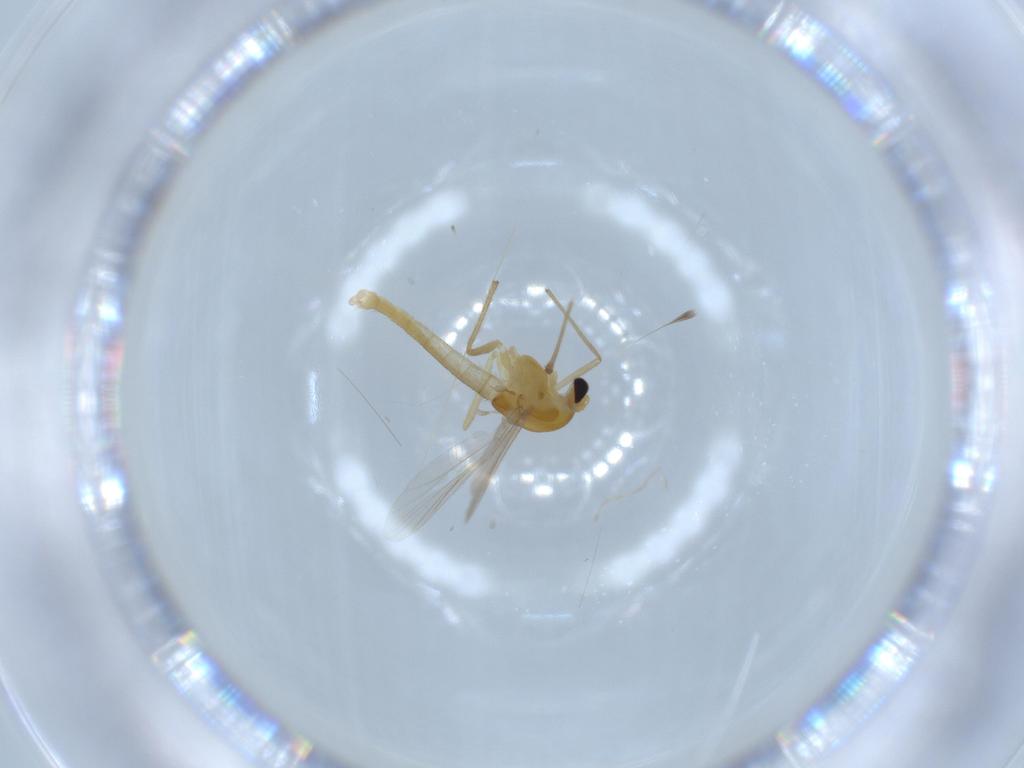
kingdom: Animalia
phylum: Arthropoda
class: Insecta
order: Diptera
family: Chironomidae
